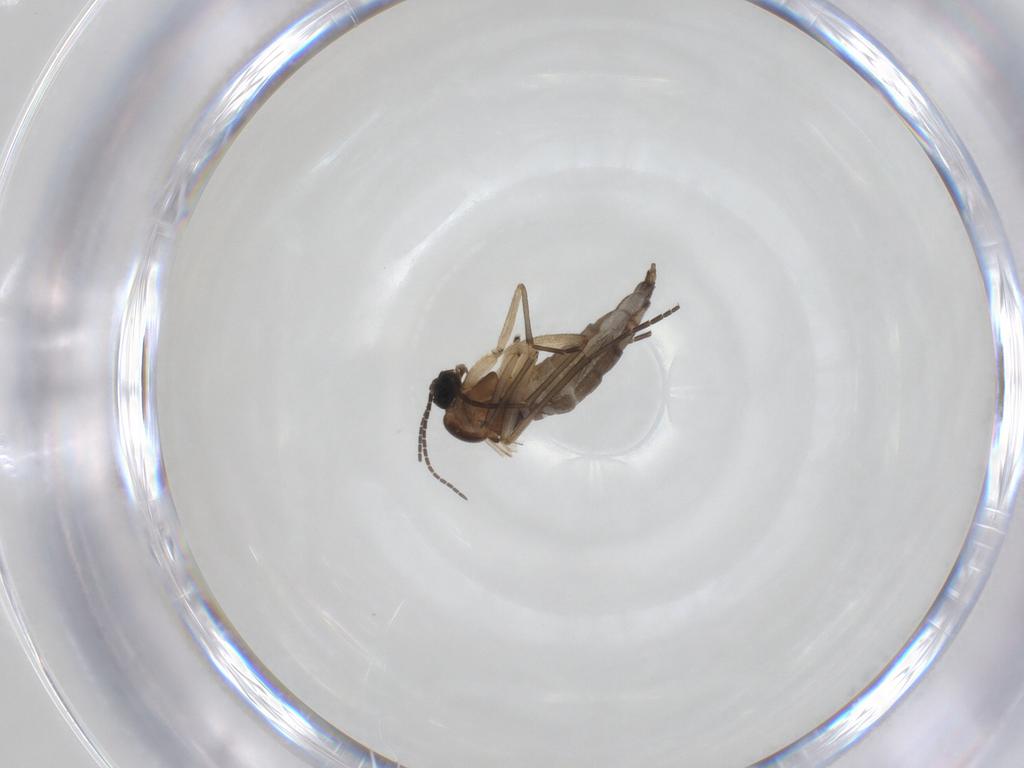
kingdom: Animalia
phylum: Arthropoda
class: Insecta
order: Diptera
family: Sciaridae
